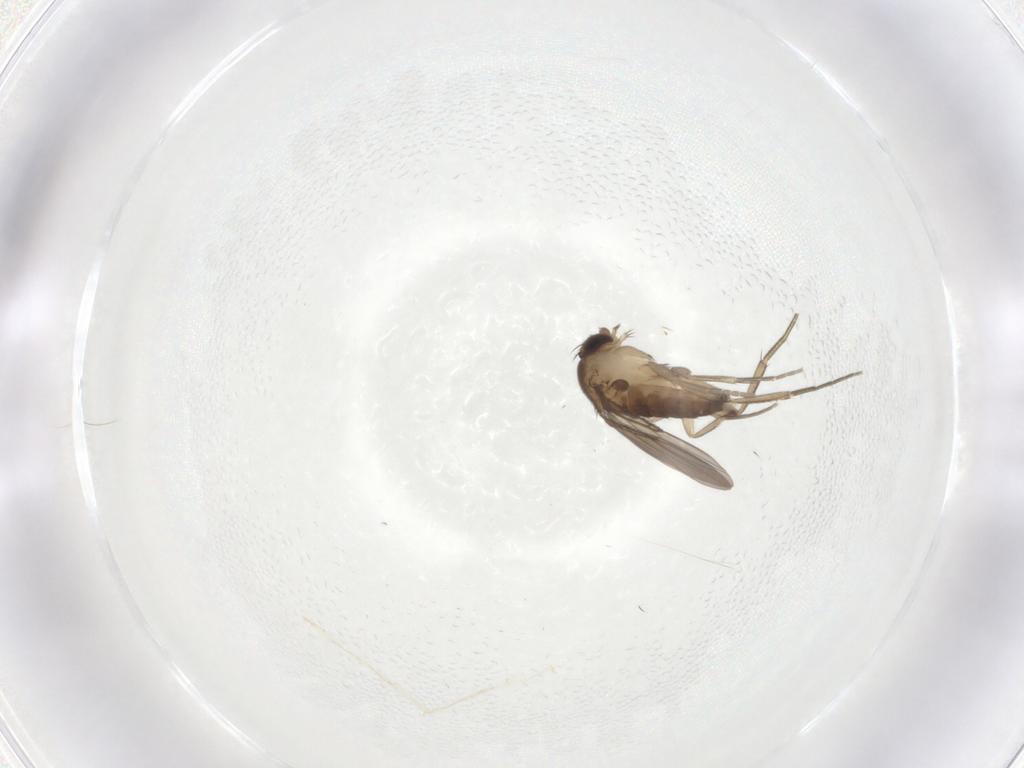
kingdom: Animalia
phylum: Arthropoda
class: Insecta
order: Diptera
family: Phoridae
